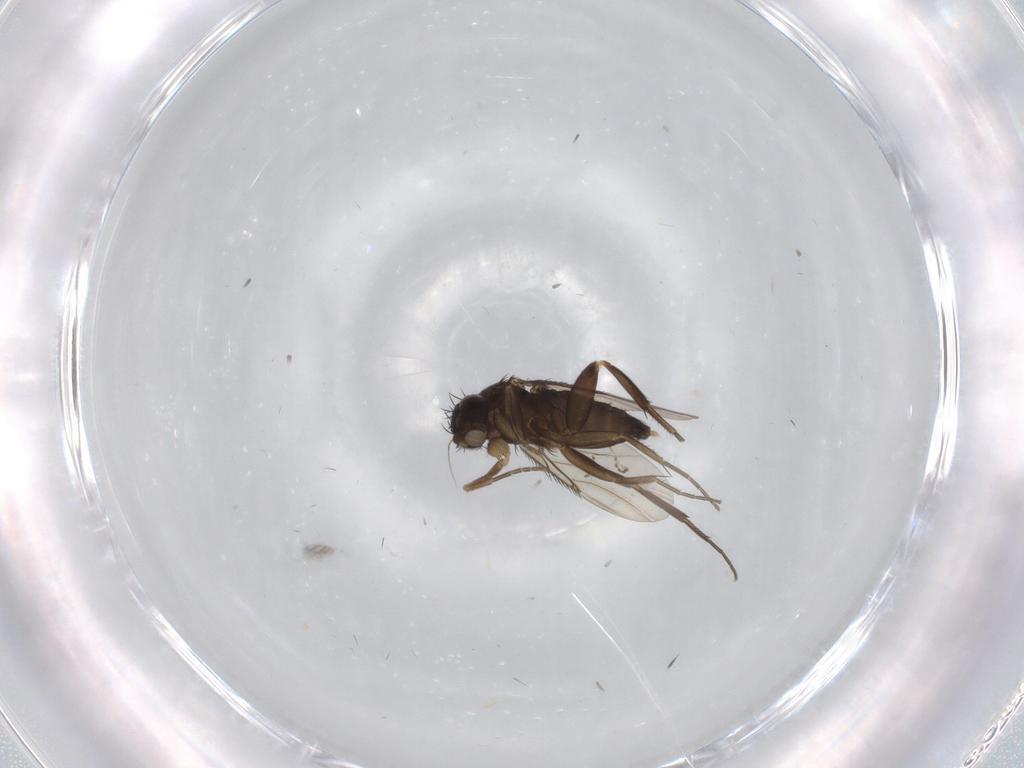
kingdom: Animalia
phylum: Arthropoda
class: Insecta
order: Diptera
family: Phoridae
